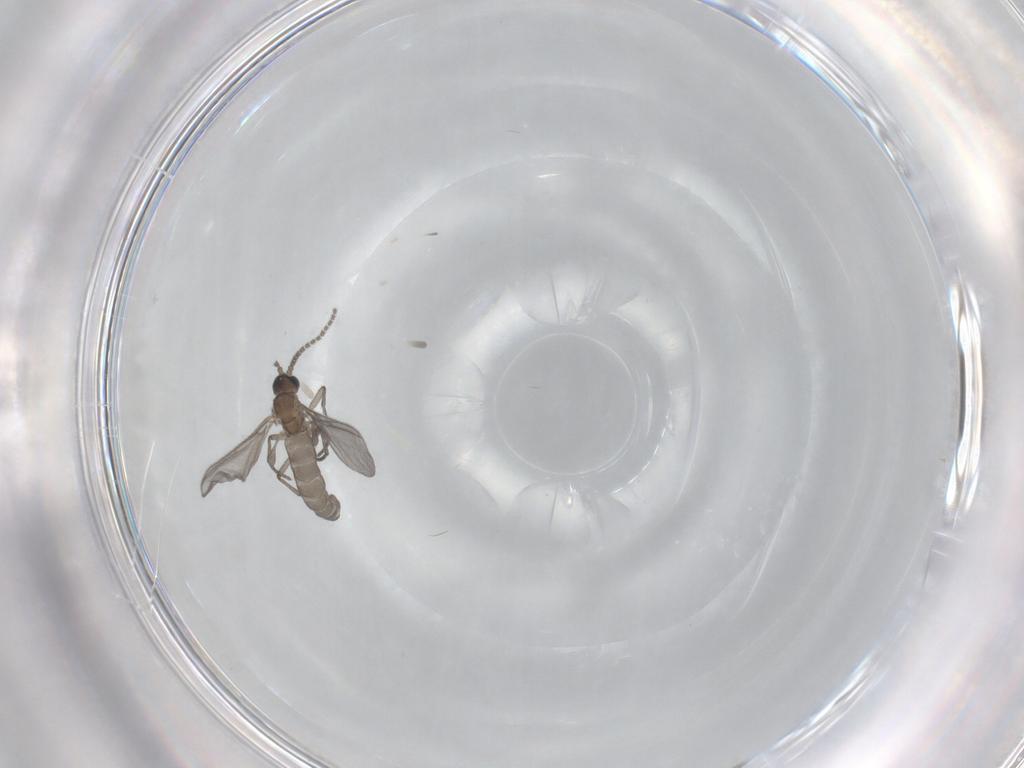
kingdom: Animalia
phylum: Arthropoda
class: Insecta
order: Diptera
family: Sciaridae
